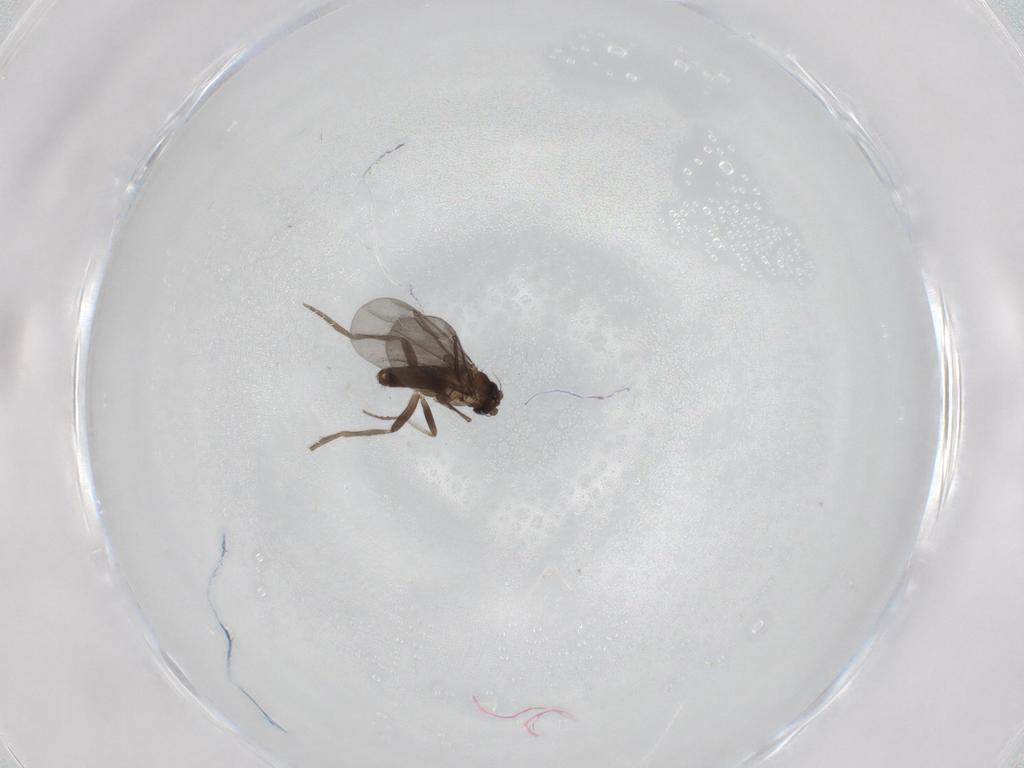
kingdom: Animalia
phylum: Arthropoda
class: Insecta
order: Diptera
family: Phoridae
